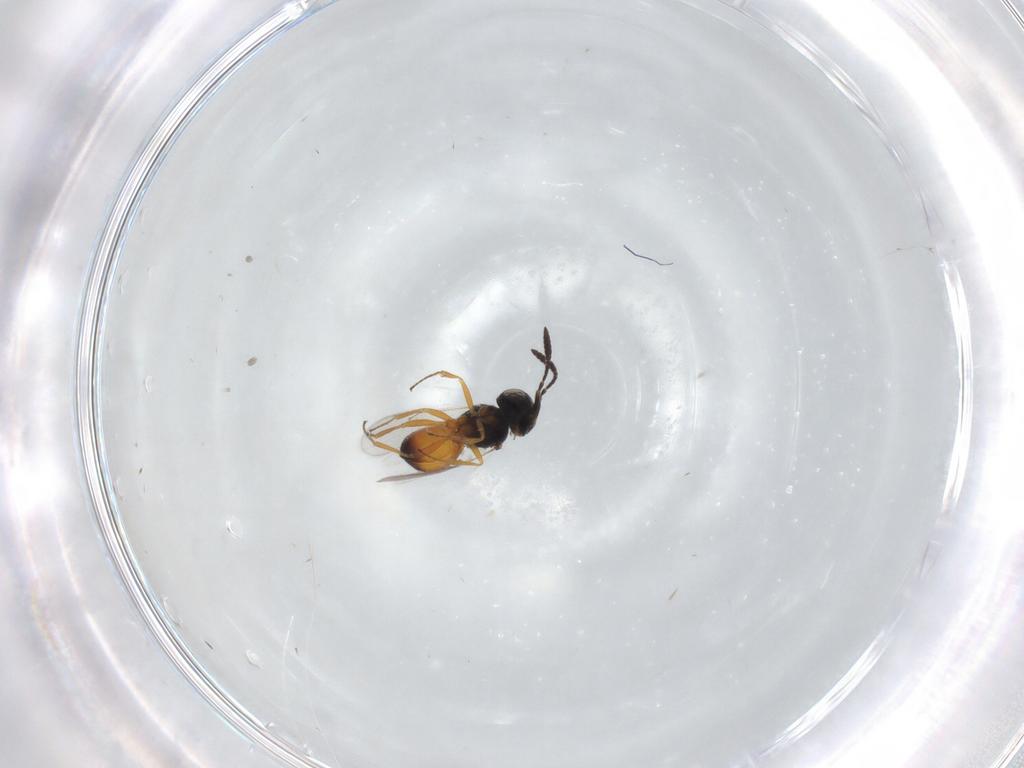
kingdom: Animalia
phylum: Arthropoda
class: Insecta
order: Hymenoptera
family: Scelionidae
